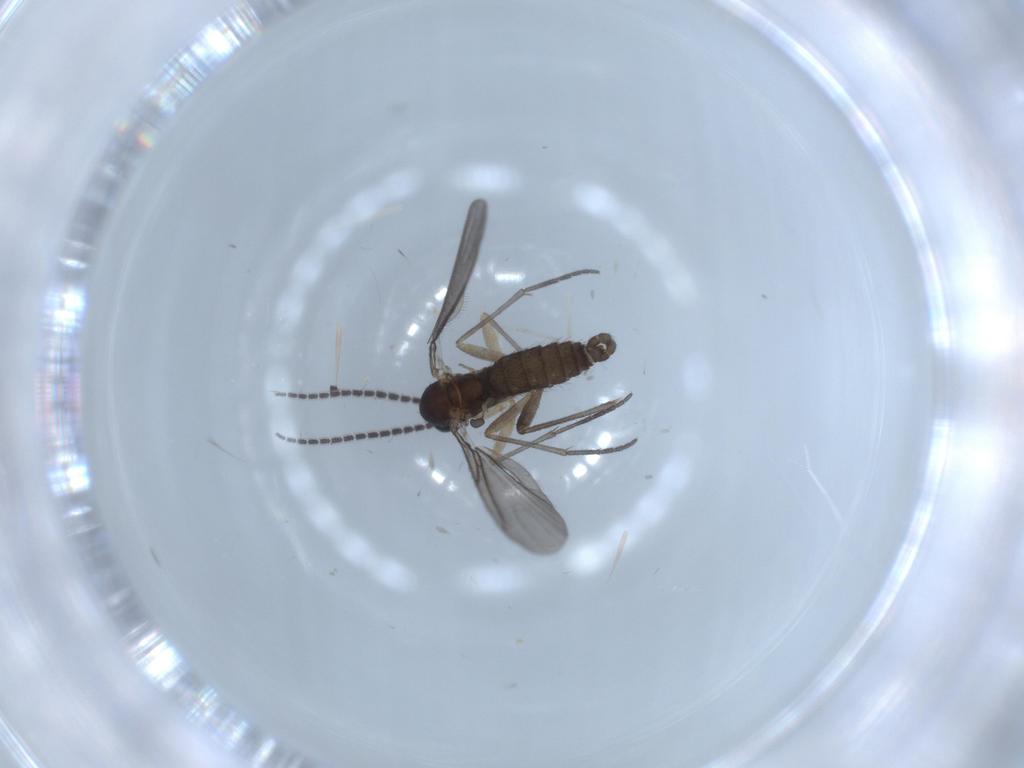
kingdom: Animalia
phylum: Arthropoda
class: Insecta
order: Diptera
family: Sciaridae
